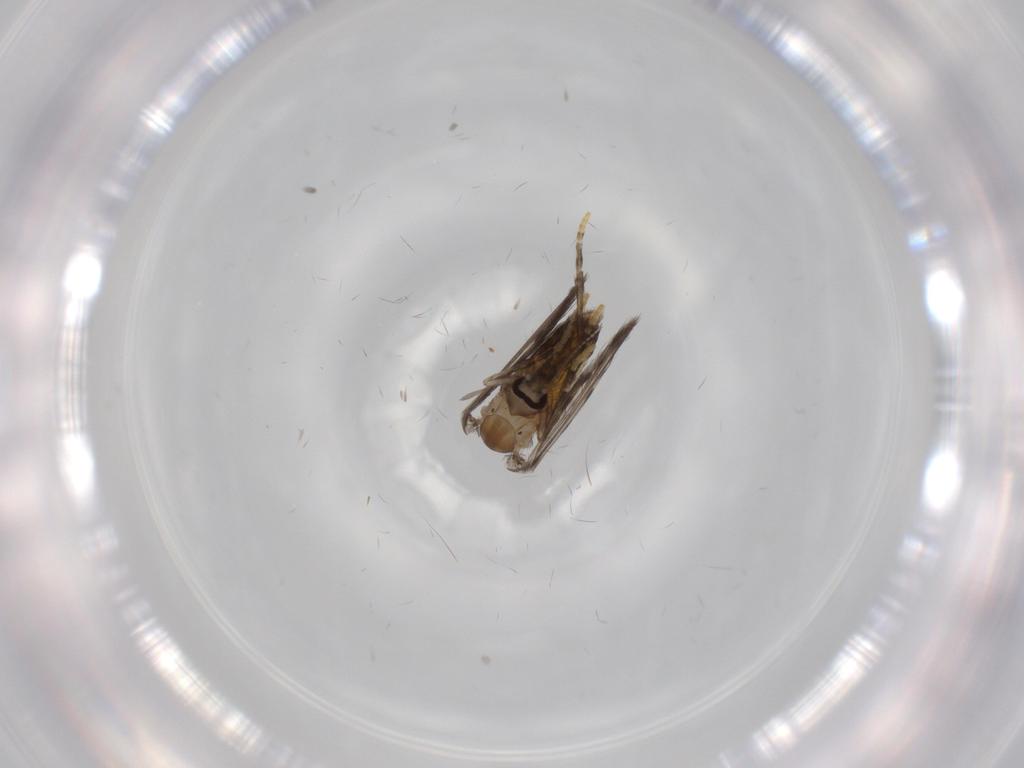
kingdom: Animalia
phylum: Arthropoda
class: Insecta
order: Diptera
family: Psychodidae
